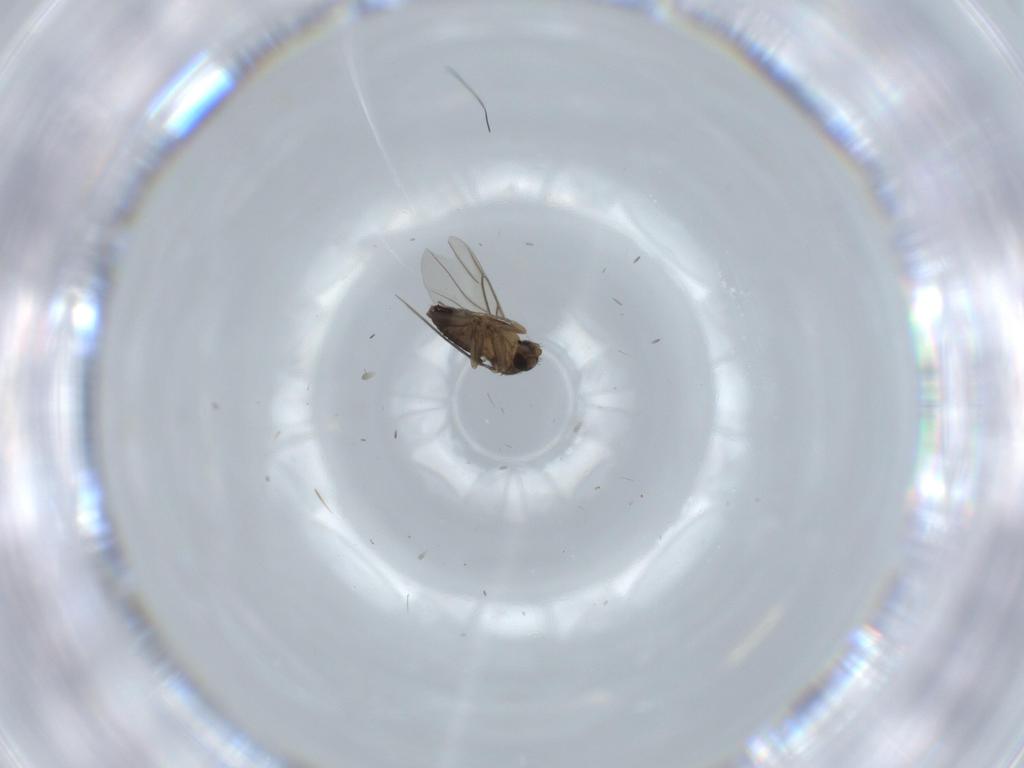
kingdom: Animalia
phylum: Arthropoda
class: Insecta
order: Diptera
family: Phoridae
